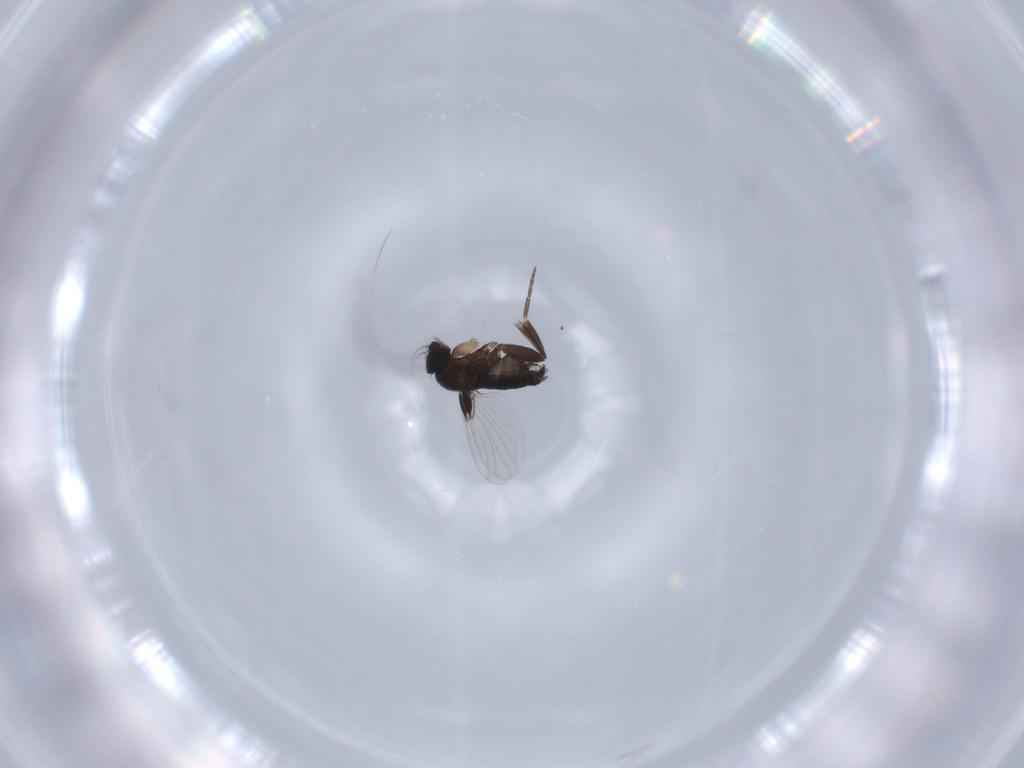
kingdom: Animalia
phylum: Arthropoda
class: Insecta
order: Diptera
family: Phoridae
